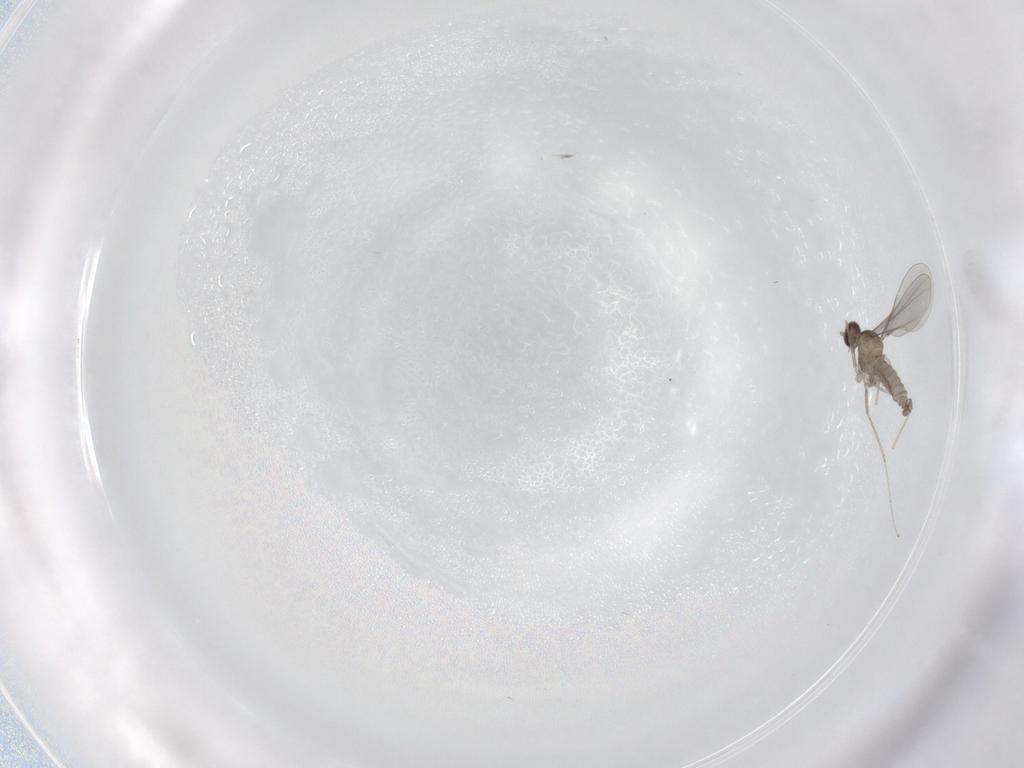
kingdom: Animalia
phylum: Arthropoda
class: Insecta
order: Diptera
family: Cecidomyiidae
